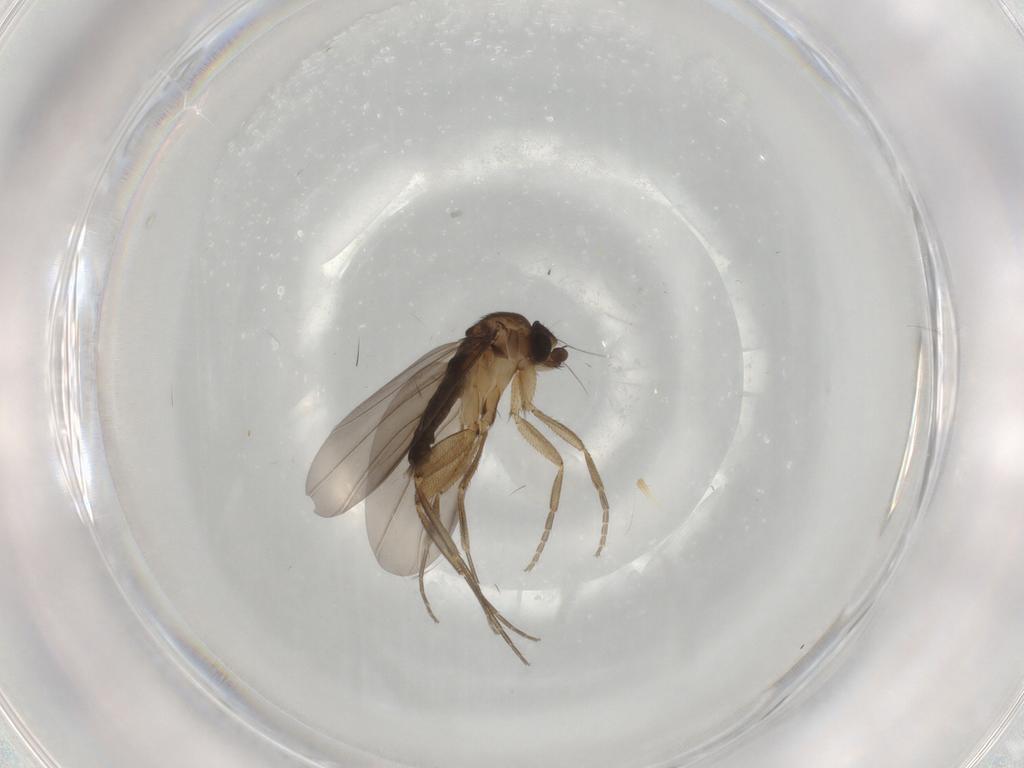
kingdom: Animalia
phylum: Arthropoda
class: Insecta
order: Diptera
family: Phoridae
